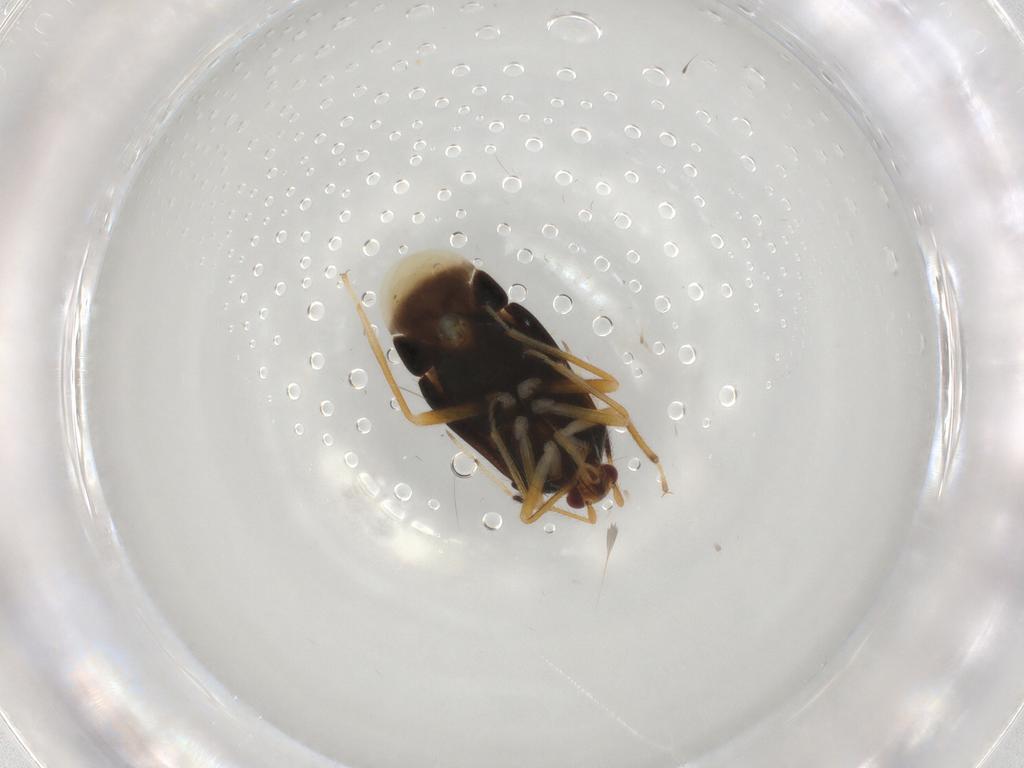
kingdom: Animalia
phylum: Arthropoda
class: Insecta
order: Hemiptera
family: Miridae
